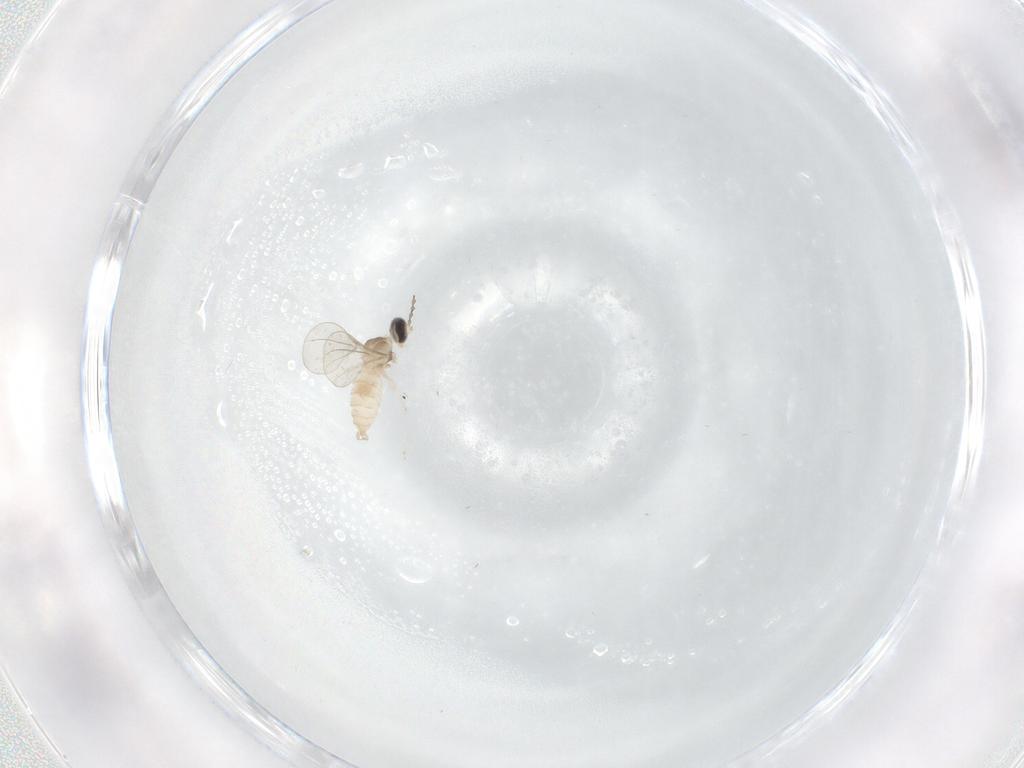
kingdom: Animalia
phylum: Arthropoda
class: Insecta
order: Diptera
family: Cecidomyiidae
